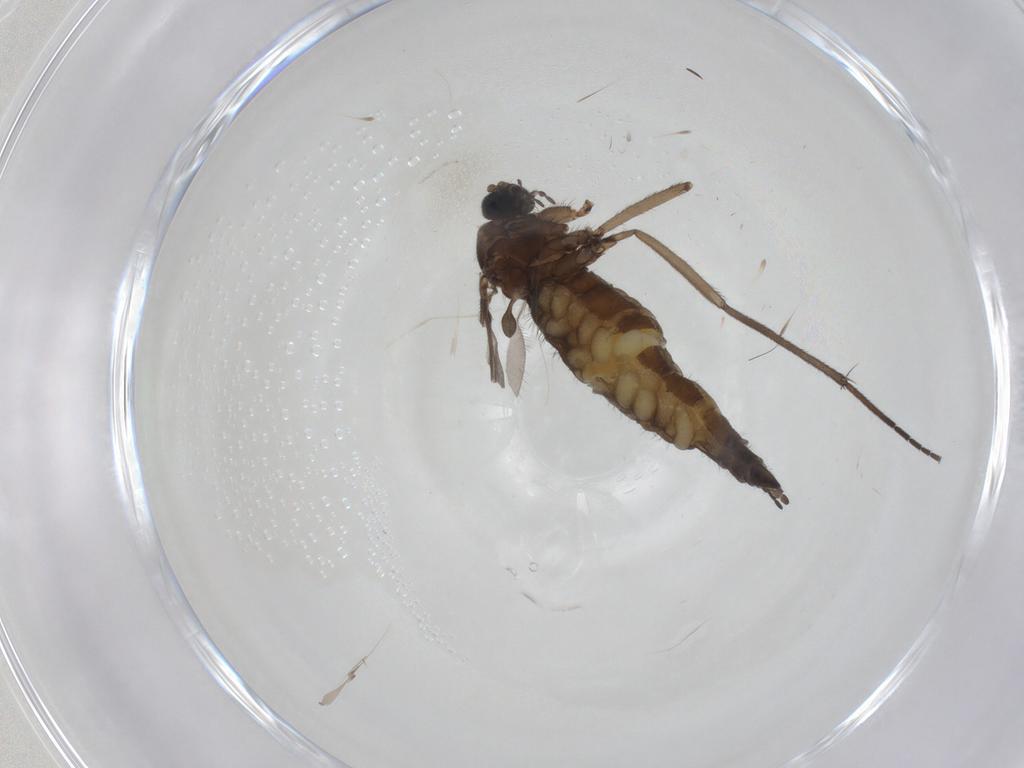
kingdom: Animalia
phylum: Arthropoda
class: Insecta
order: Diptera
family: Sciaridae
